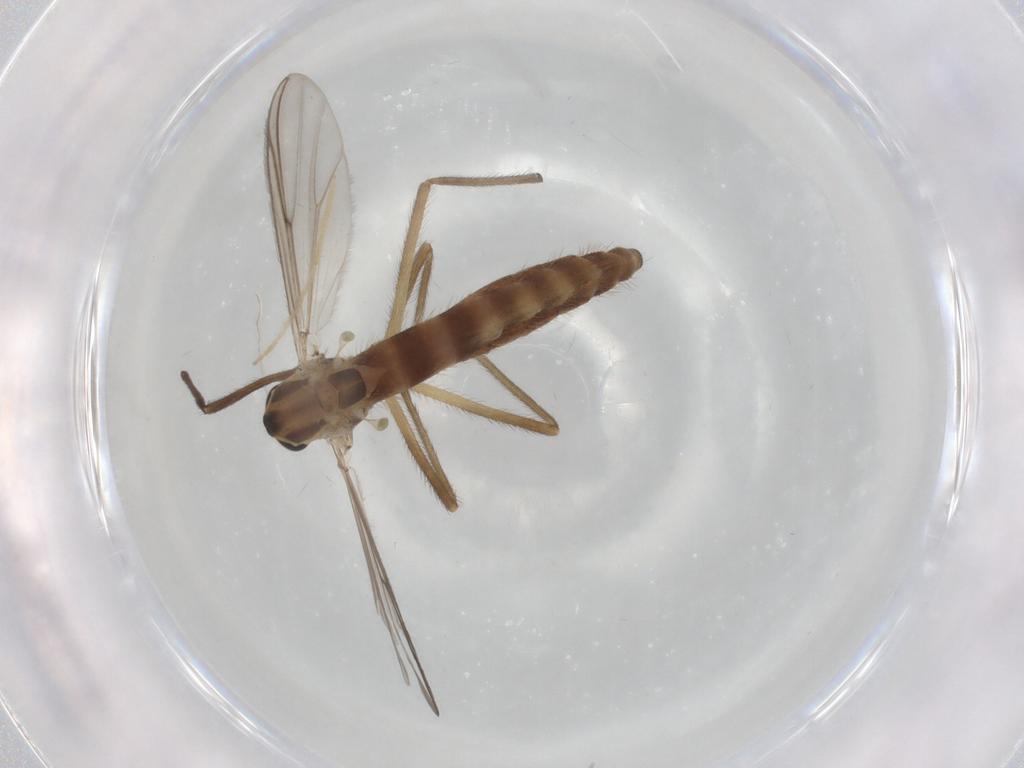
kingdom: Animalia
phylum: Arthropoda
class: Insecta
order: Diptera
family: Chironomidae
